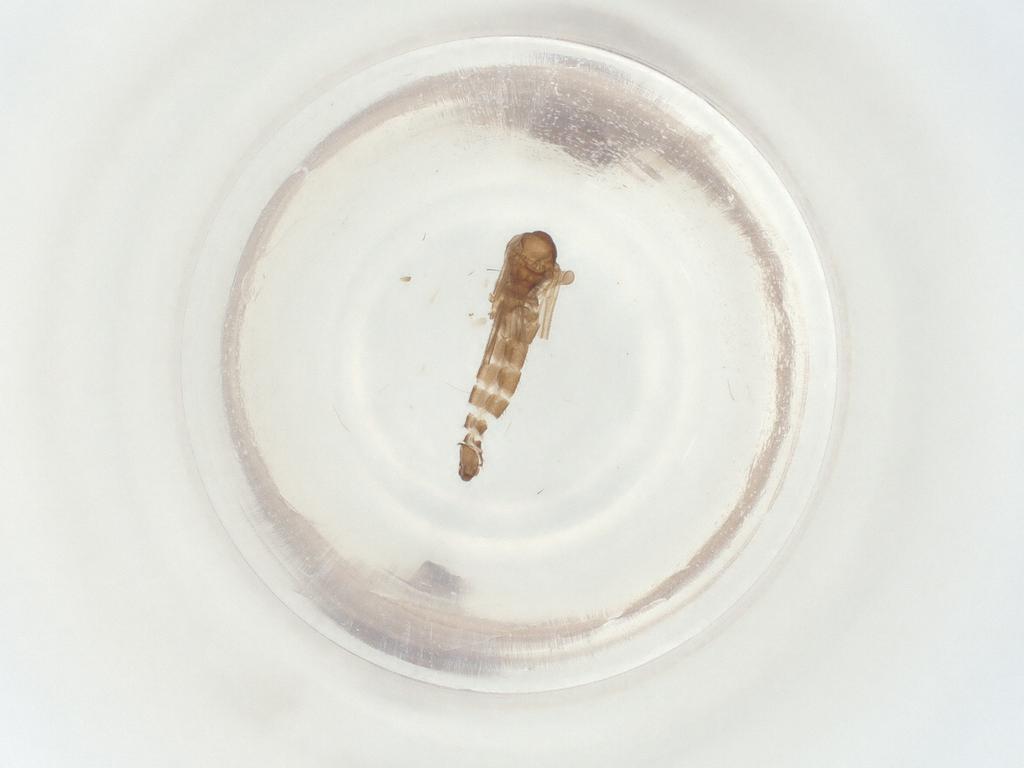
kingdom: Animalia
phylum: Arthropoda
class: Insecta
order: Diptera
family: Sciaridae
